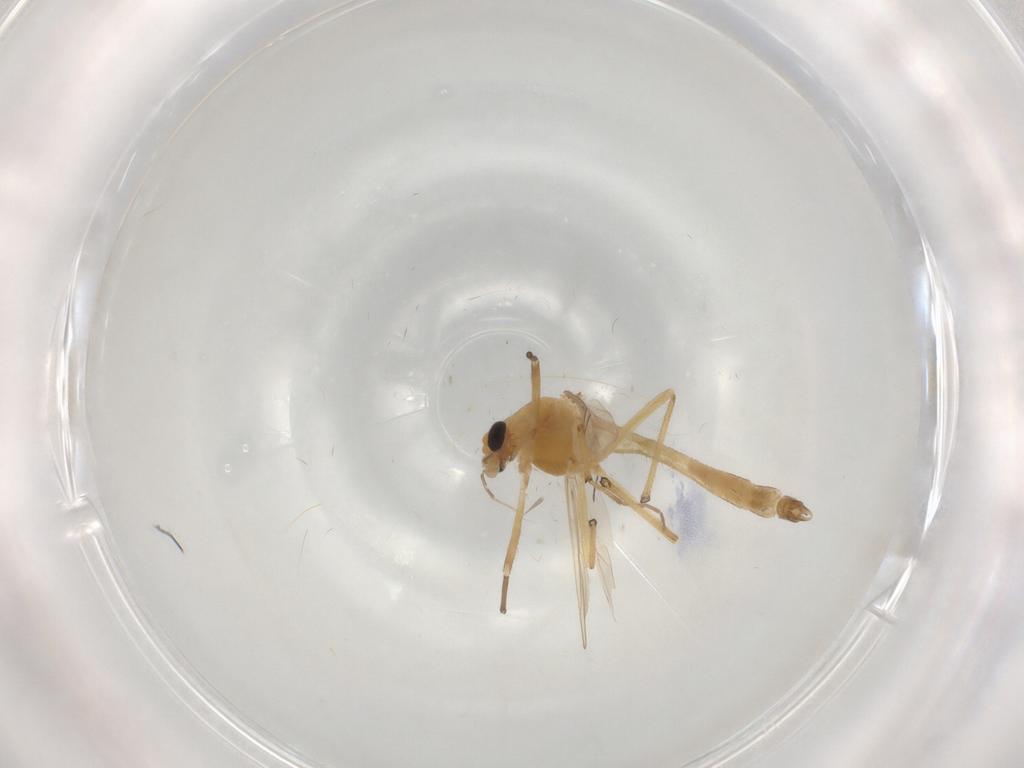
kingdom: Animalia
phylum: Arthropoda
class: Insecta
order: Diptera
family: Chironomidae
